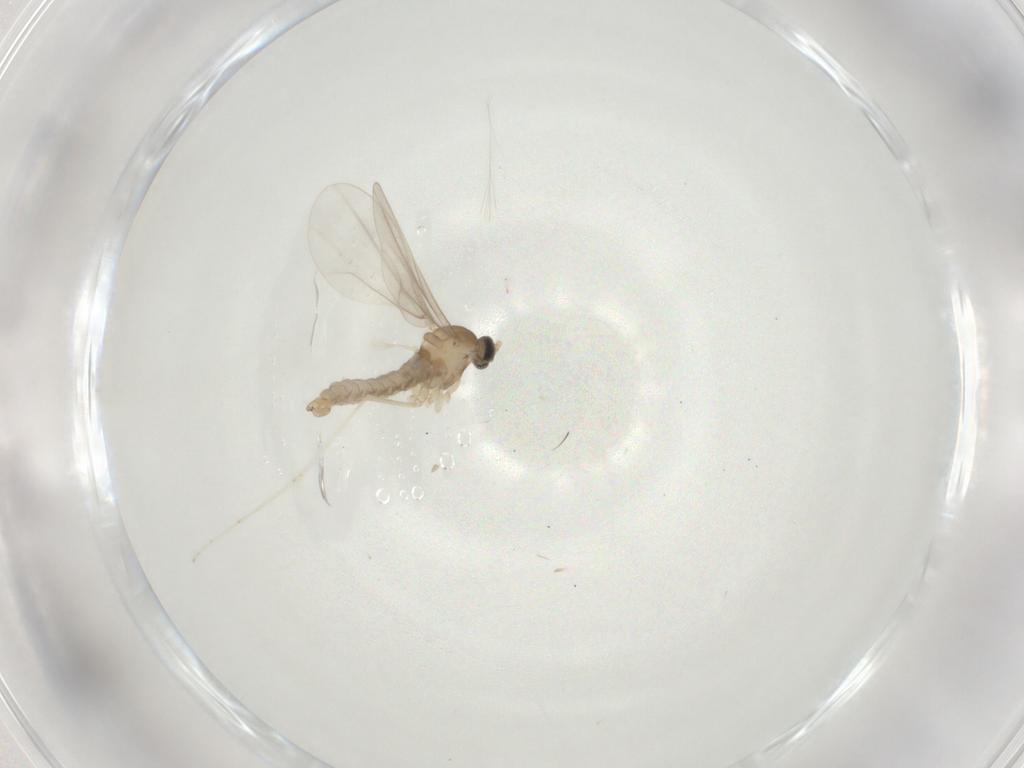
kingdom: Animalia
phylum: Arthropoda
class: Insecta
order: Diptera
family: Cecidomyiidae
